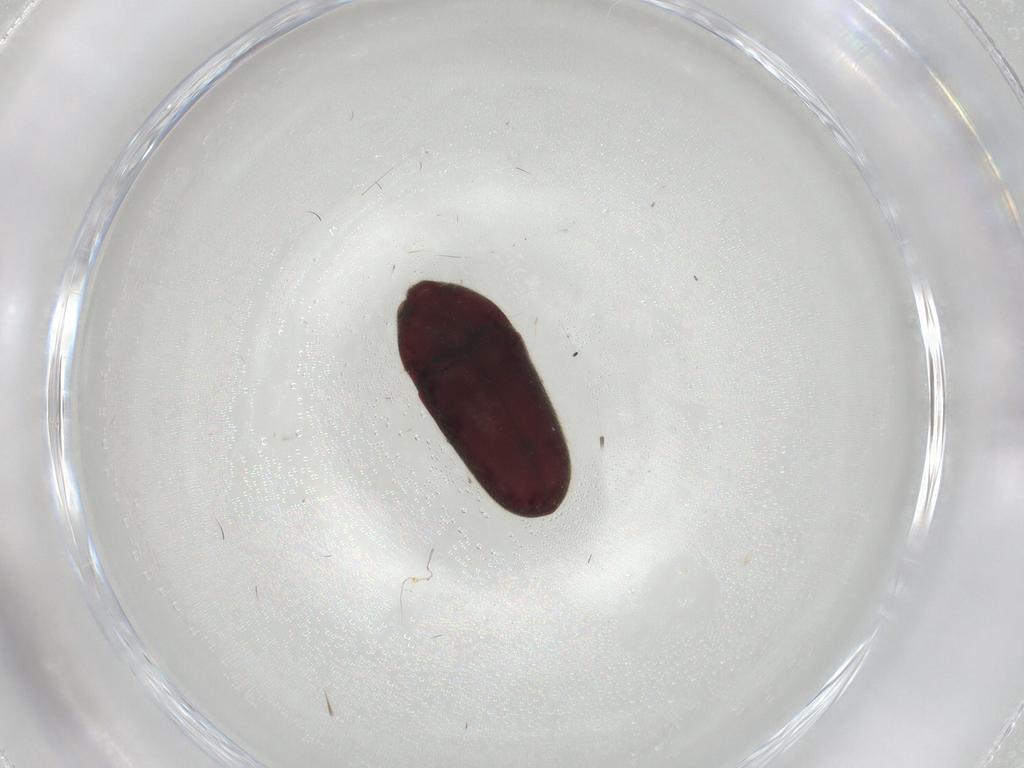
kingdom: Animalia
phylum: Arthropoda
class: Insecta
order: Coleoptera
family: Throscidae
